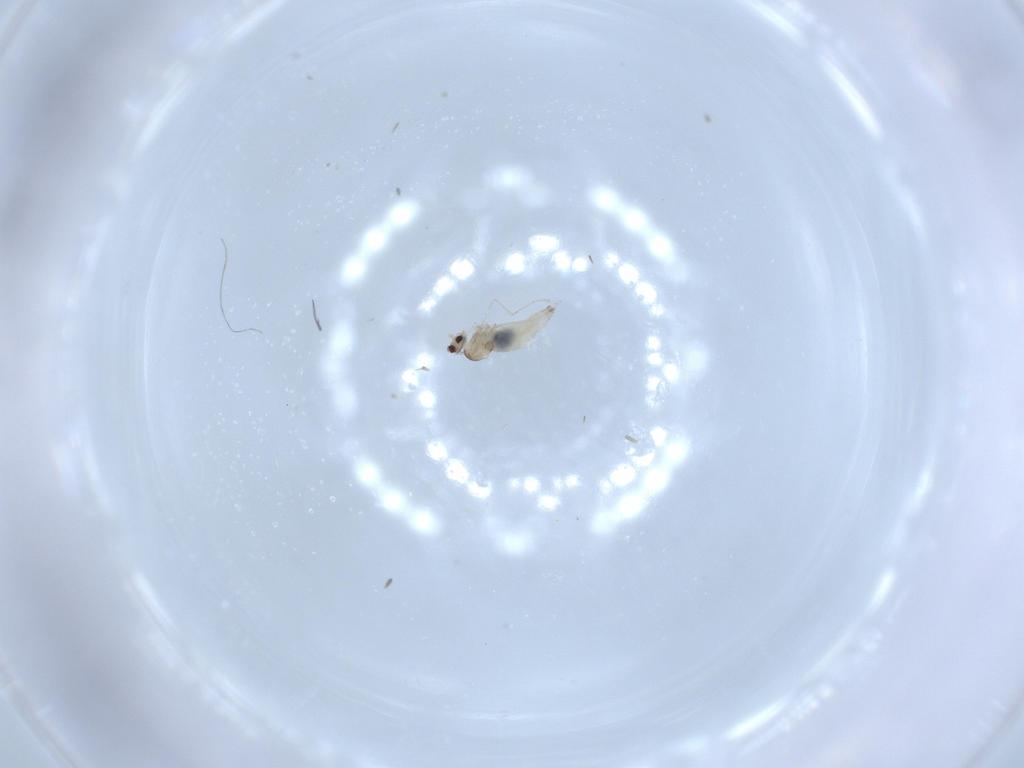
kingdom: Animalia
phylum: Arthropoda
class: Insecta
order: Diptera
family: Cecidomyiidae
